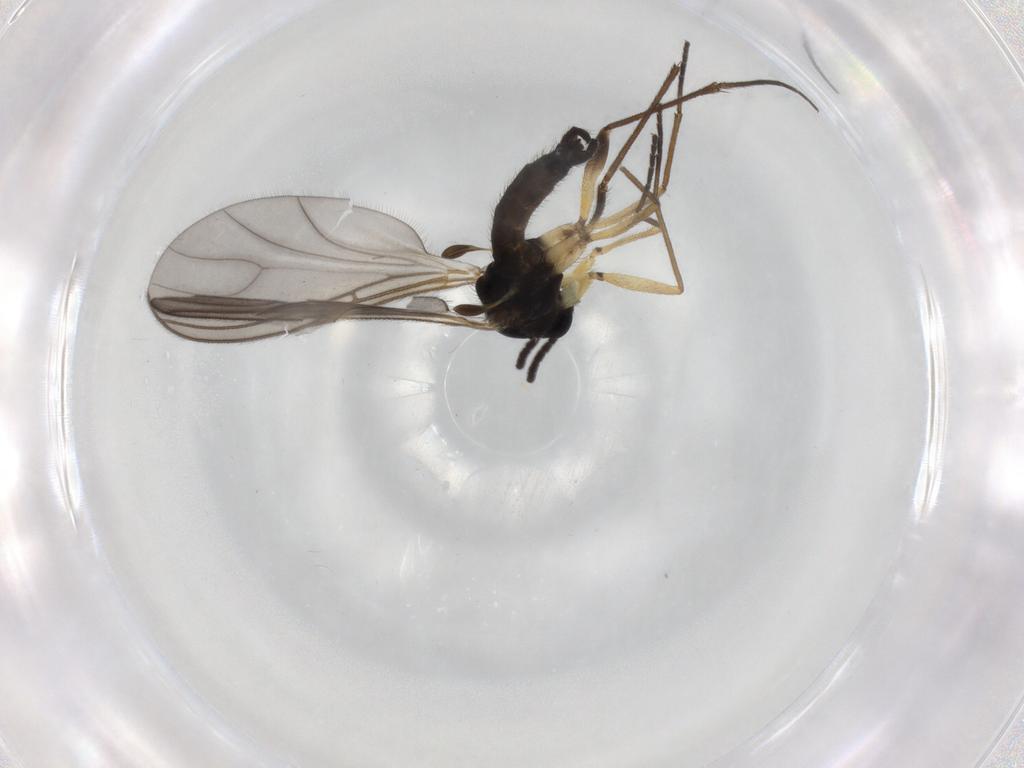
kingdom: Animalia
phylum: Arthropoda
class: Insecta
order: Diptera
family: Sciaridae
